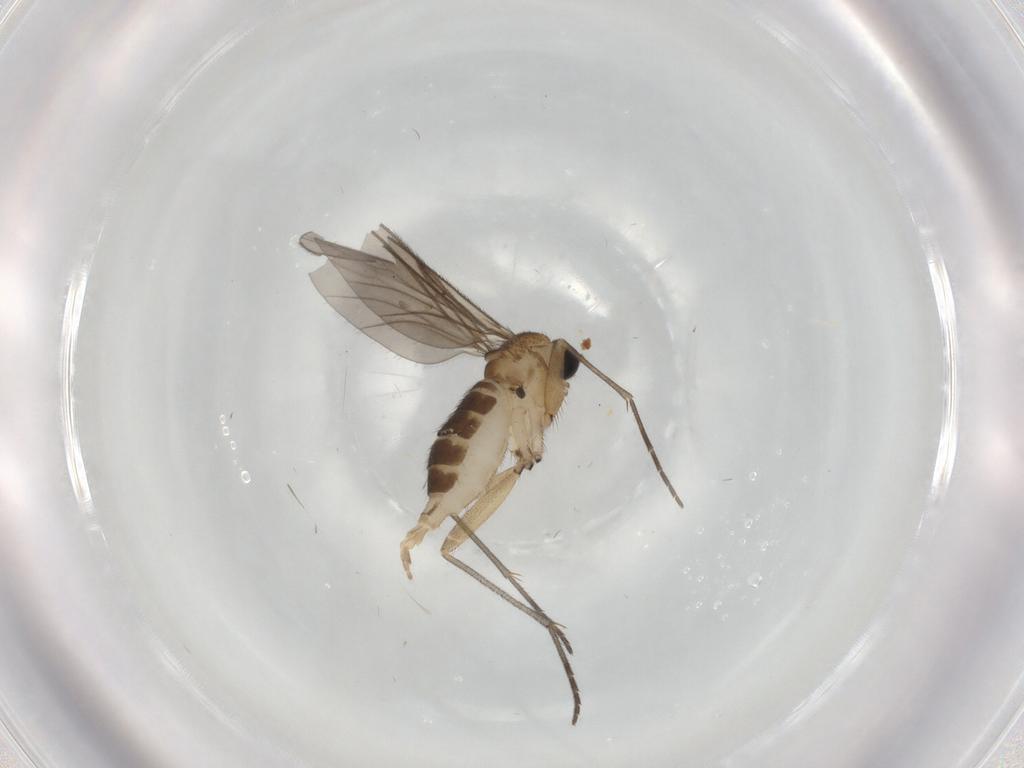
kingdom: Animalia
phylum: Arthropoda
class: Insecta
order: Diptera
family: Sciaridae
